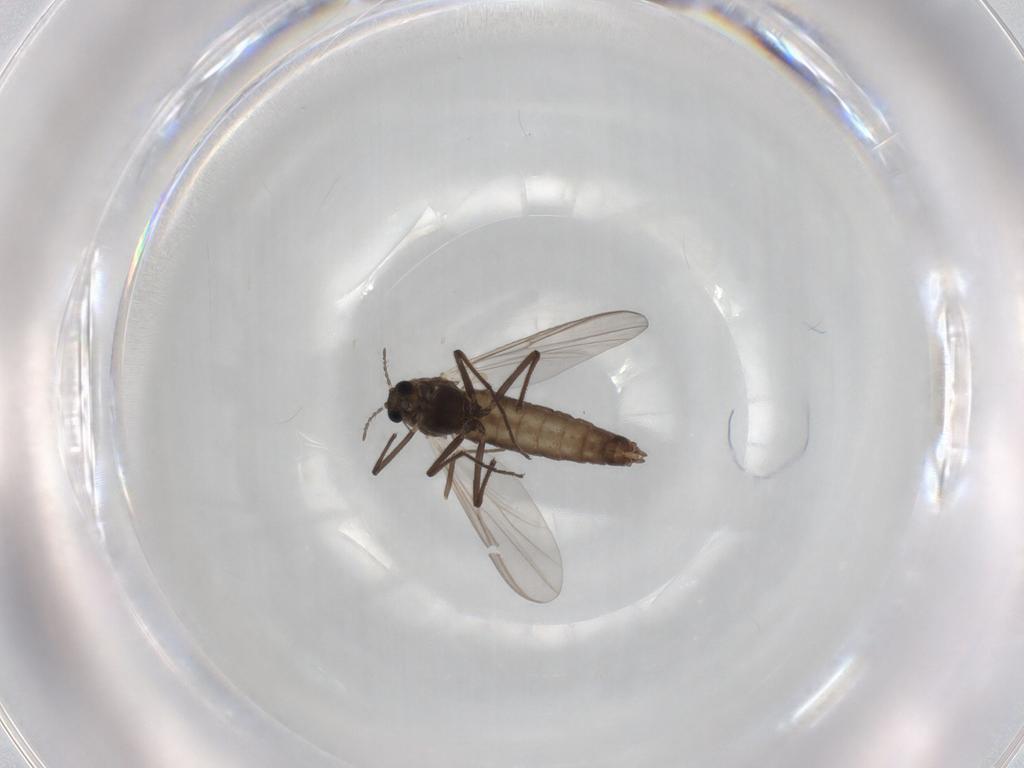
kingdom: Animalia
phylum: Arthropoda
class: Insecta
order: Diptera
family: Chironomidae
